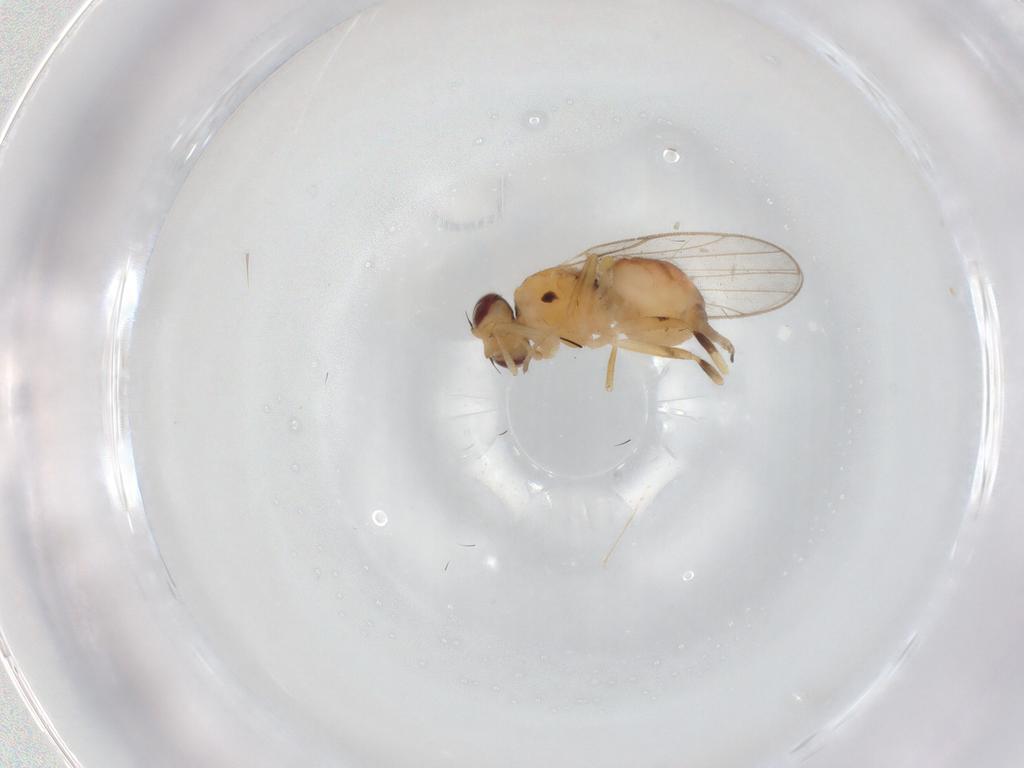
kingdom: Animalia
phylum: Arthropoda
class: Insecta
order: Diptera
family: Chloropidae
